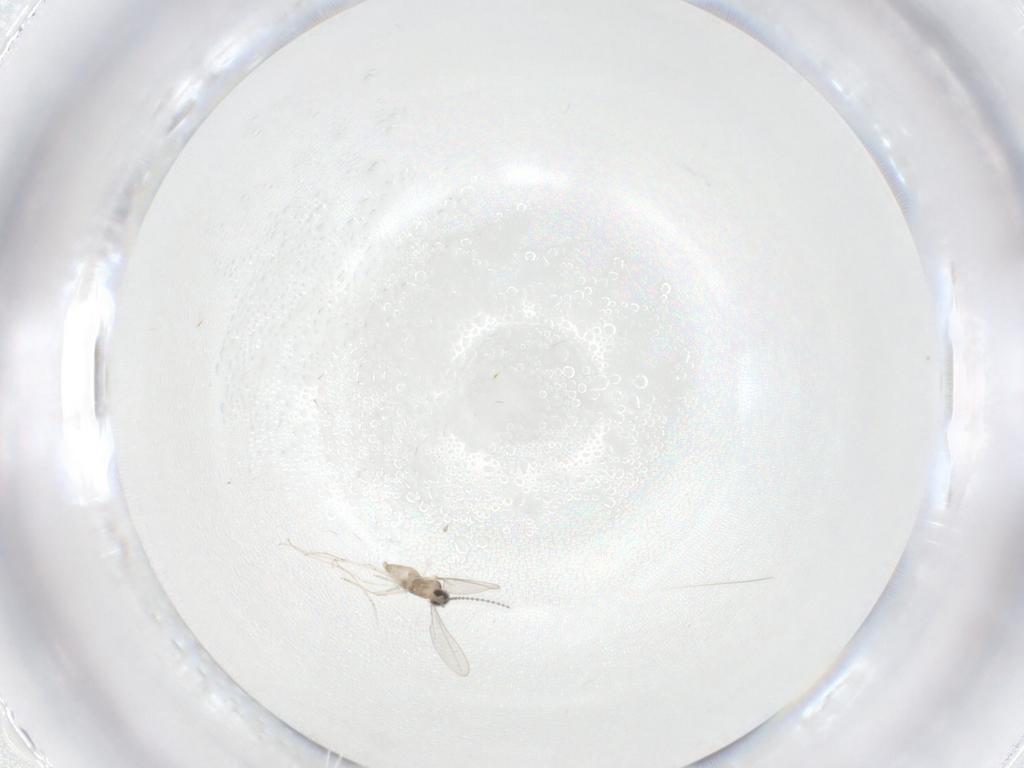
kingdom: Animalia
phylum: Arthropoda
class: Insecta
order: Diptera
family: Cecidomyiidae
